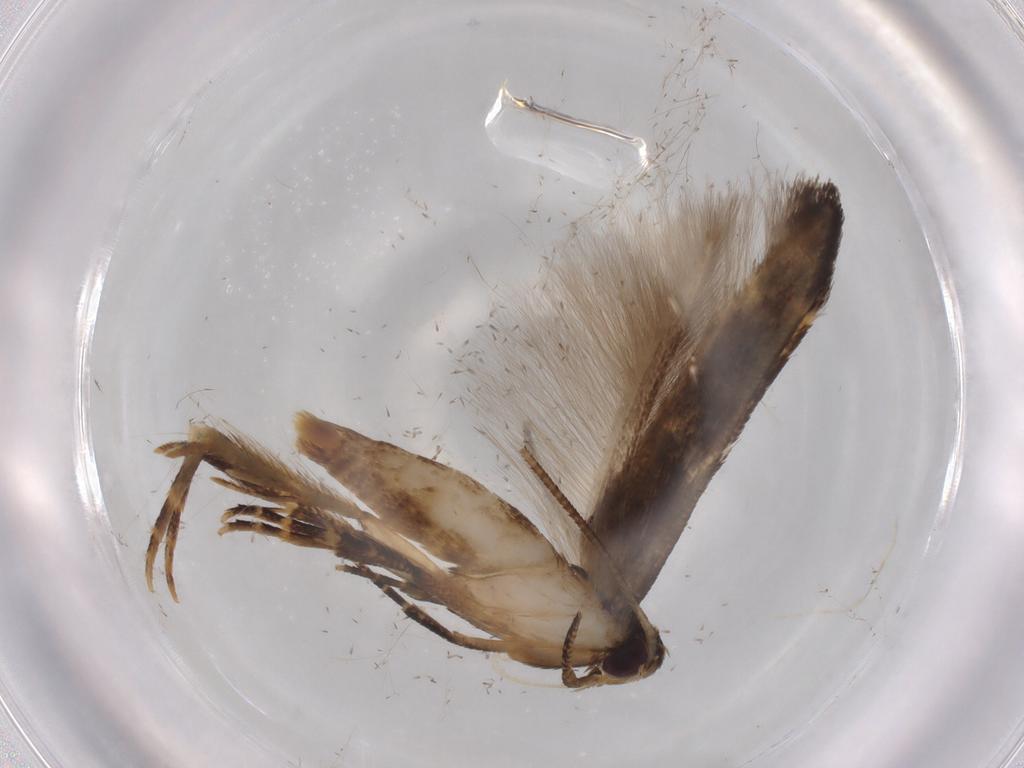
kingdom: Animalia
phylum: Arthropoda
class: Insecta
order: Lepidoptera
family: Cosmopterigidae
